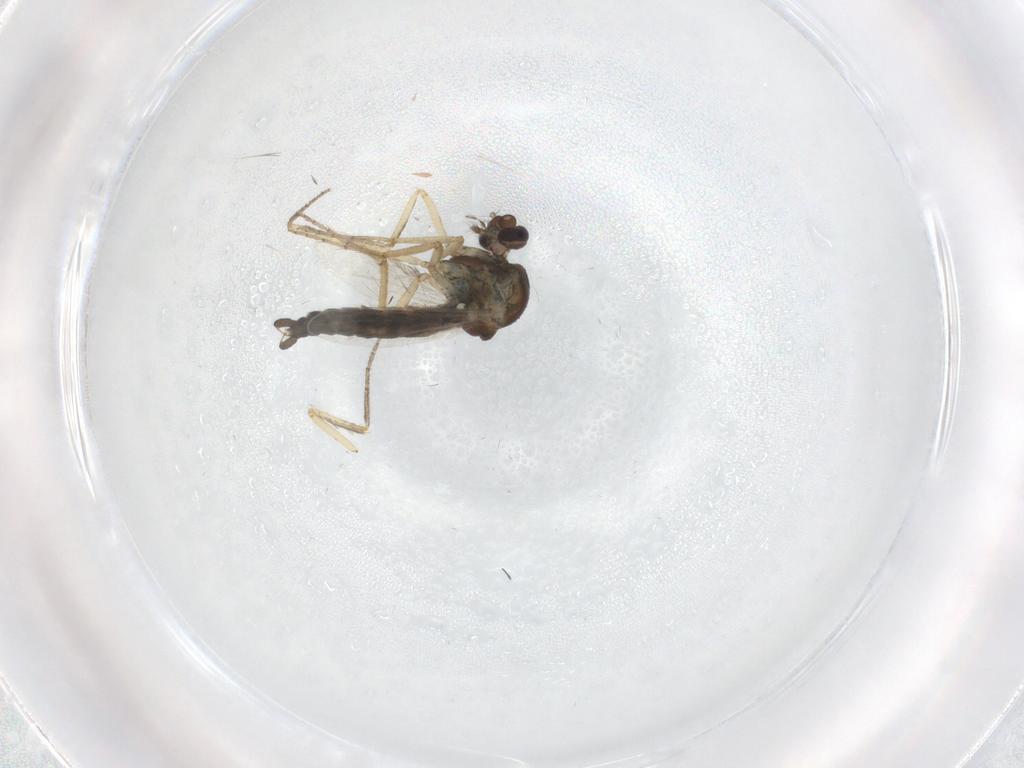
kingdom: Animalia
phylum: Arthropoda
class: Insecta
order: Diptera
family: Ceratopogonidae
